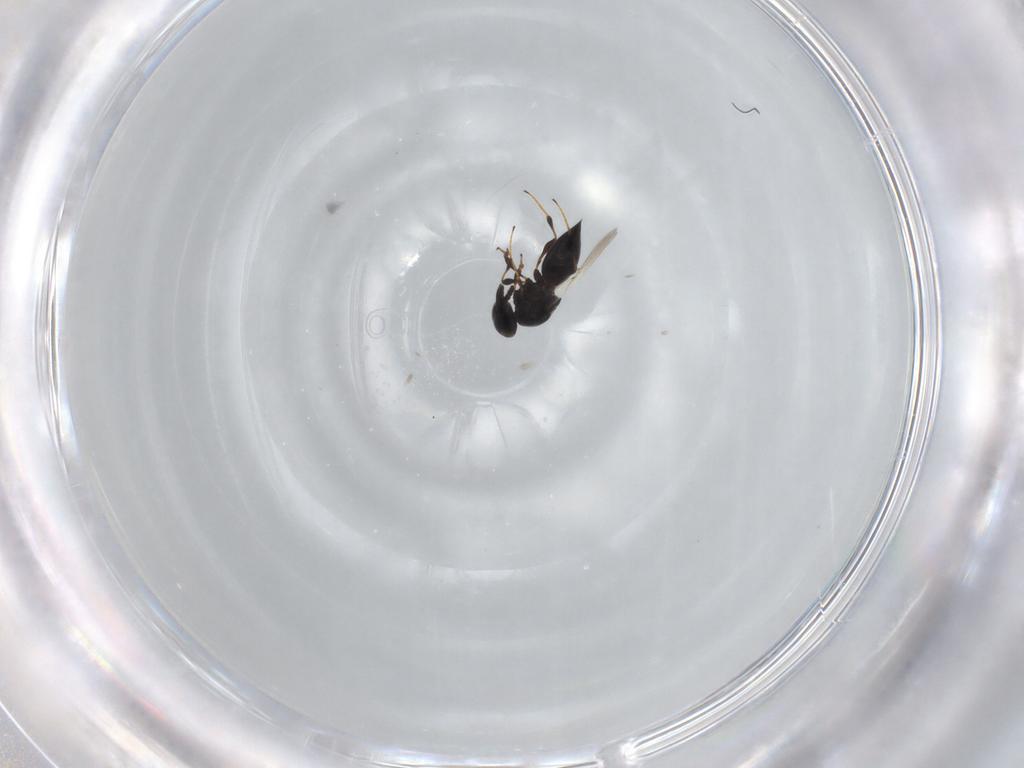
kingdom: Animalia
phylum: Arthropoda
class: Insecta
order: Hymenoptera
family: Platygastridae
